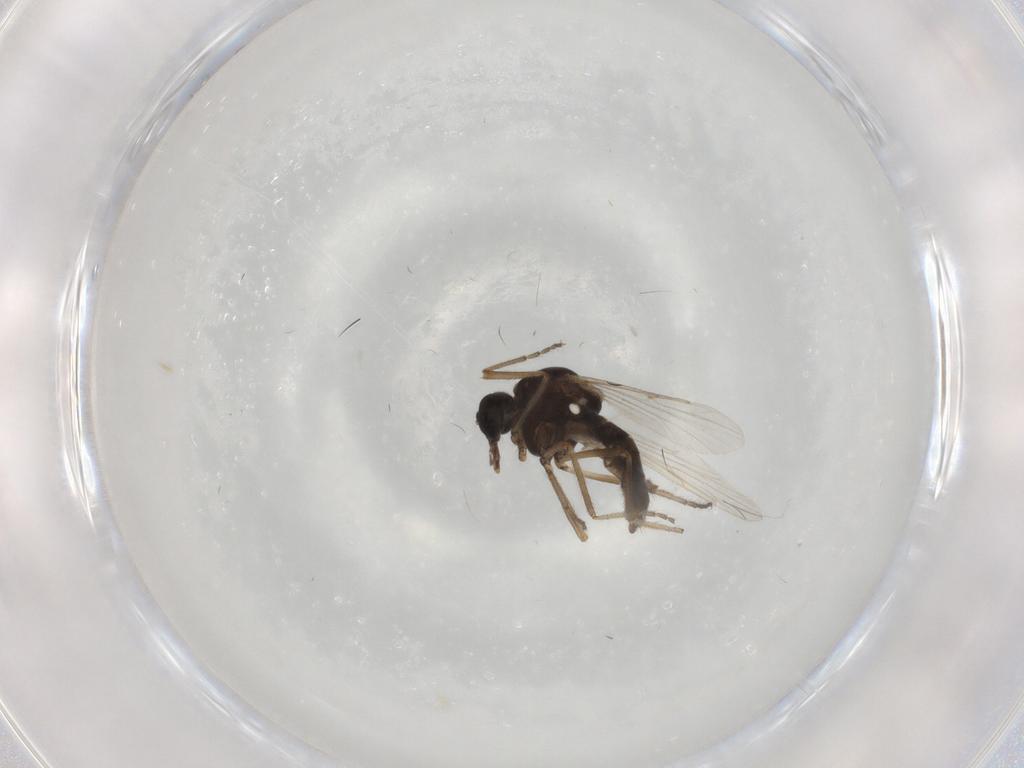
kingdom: Animalia
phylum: Arthropoda
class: Insecta
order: Diptera
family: Ceratopogonidae
